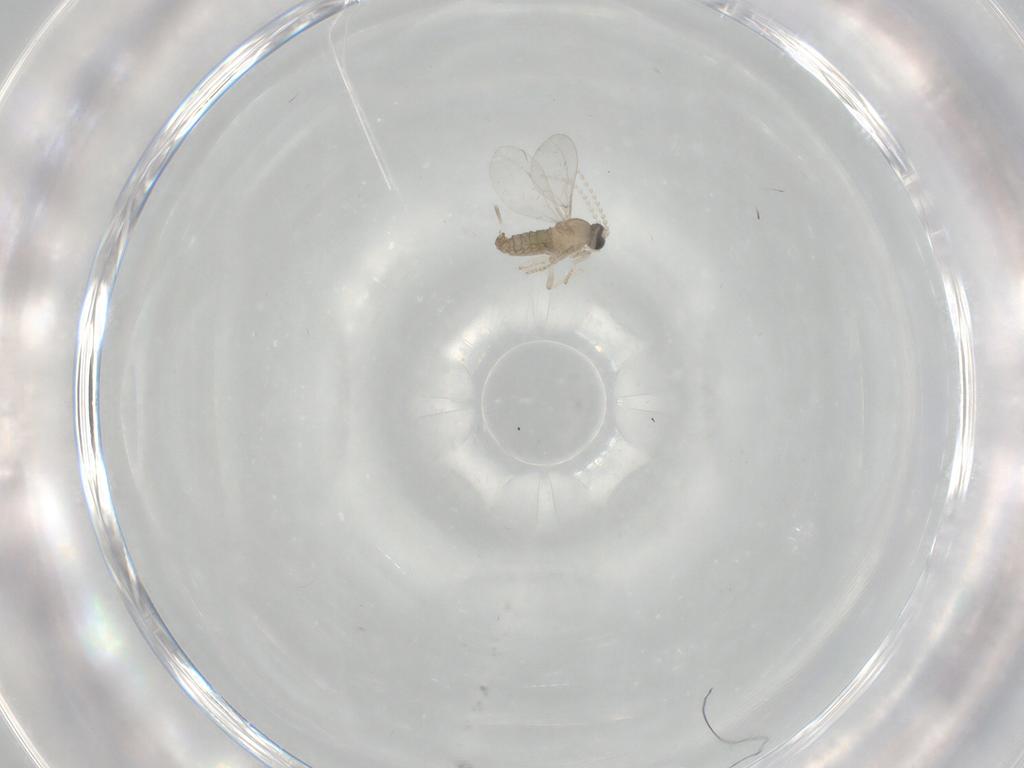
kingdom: Animalia
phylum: Arthropoda
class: Insecta
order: Diptera
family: Cecidomyiidae
